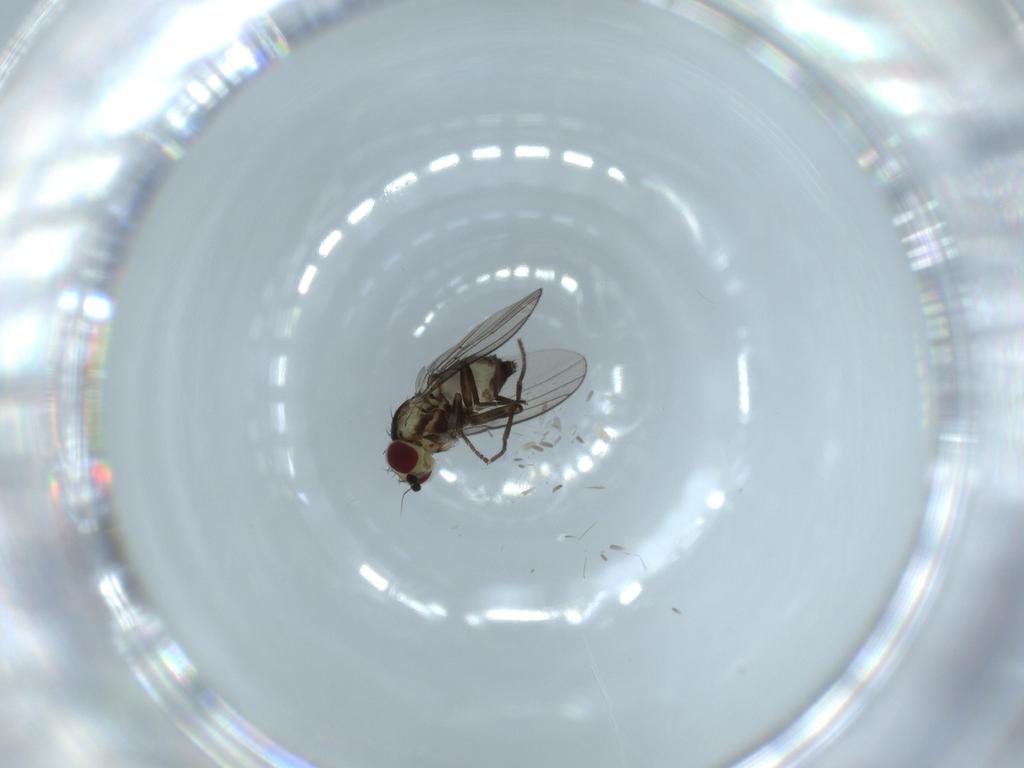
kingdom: Animalia
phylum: Arthropoda
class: Insecta
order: Diptera
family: Agromyzidae
